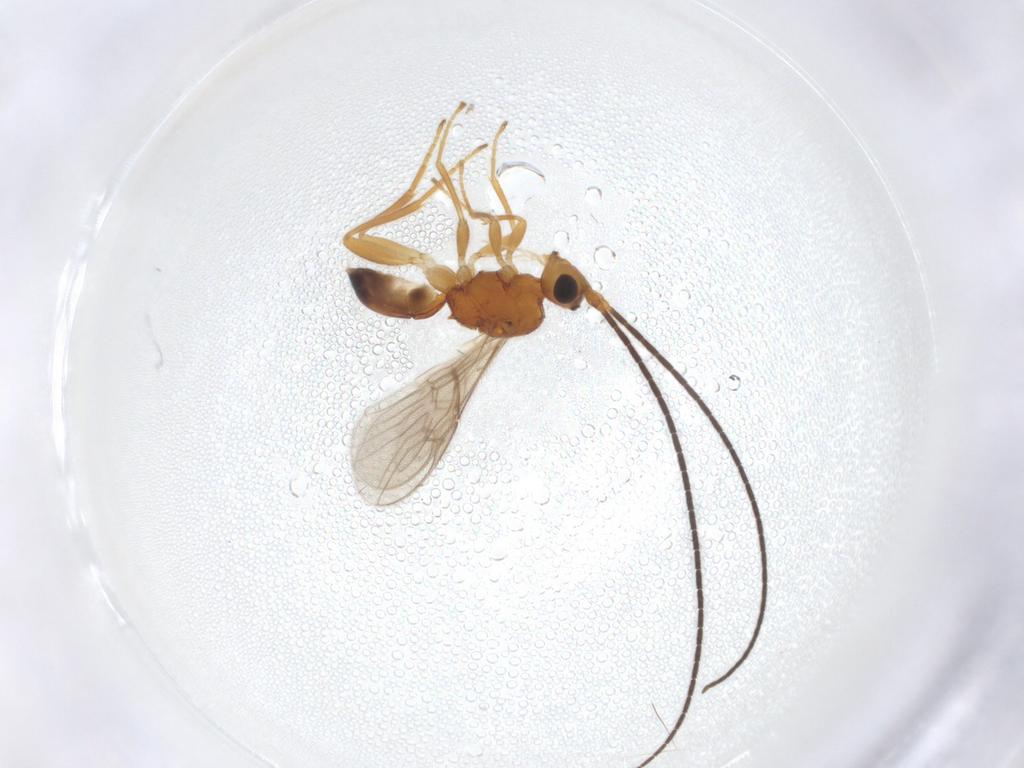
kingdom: Animalia
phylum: Arthropoda
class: Insecta
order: Hymenoptera
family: Braconidae
